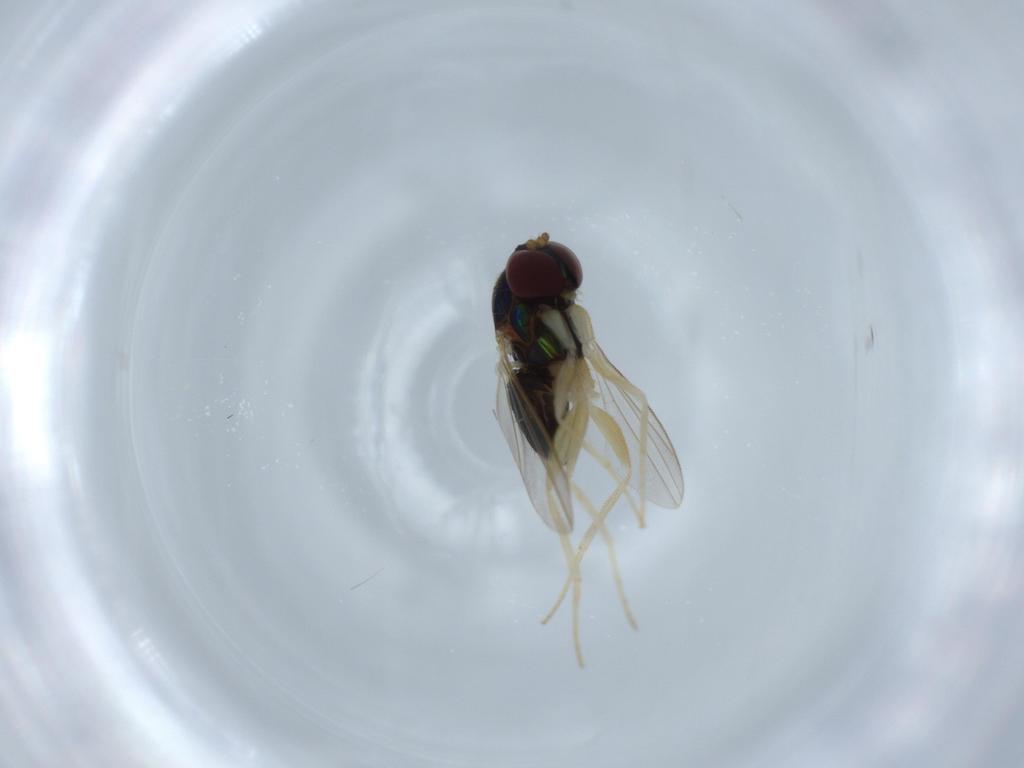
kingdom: Animalia
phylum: Arthropoda
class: Insecta
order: Diptera
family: Dolichopodidae
